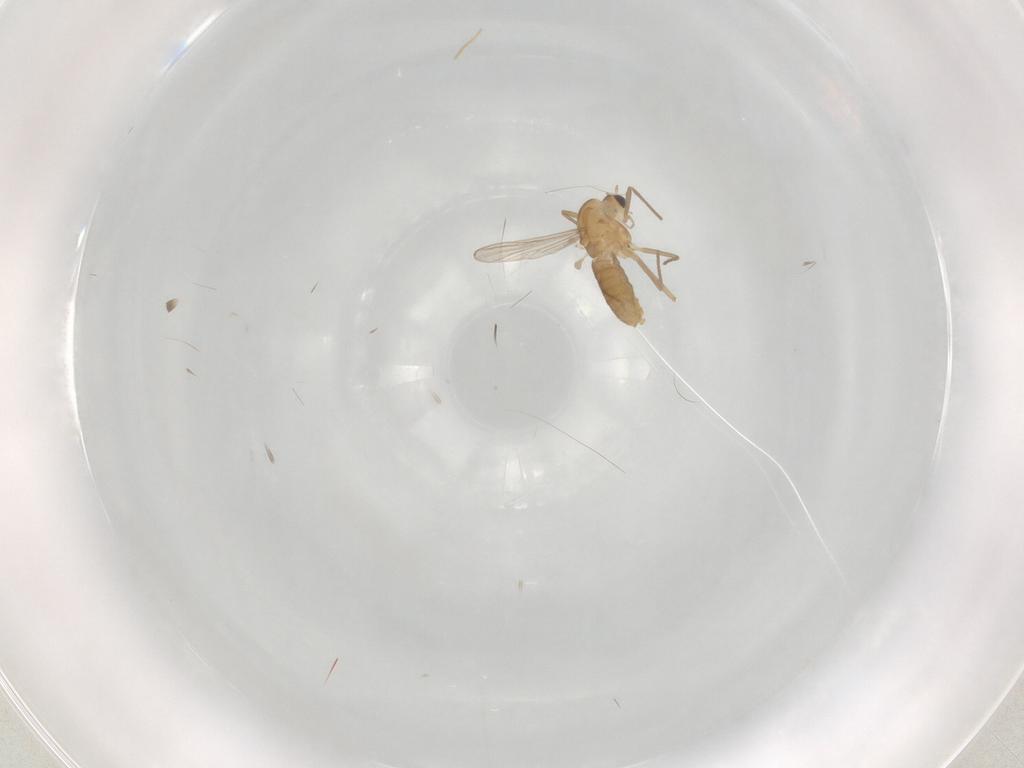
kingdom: Animalia
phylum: Arthropoda
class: Insecta
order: Diptera
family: Chironomidae
